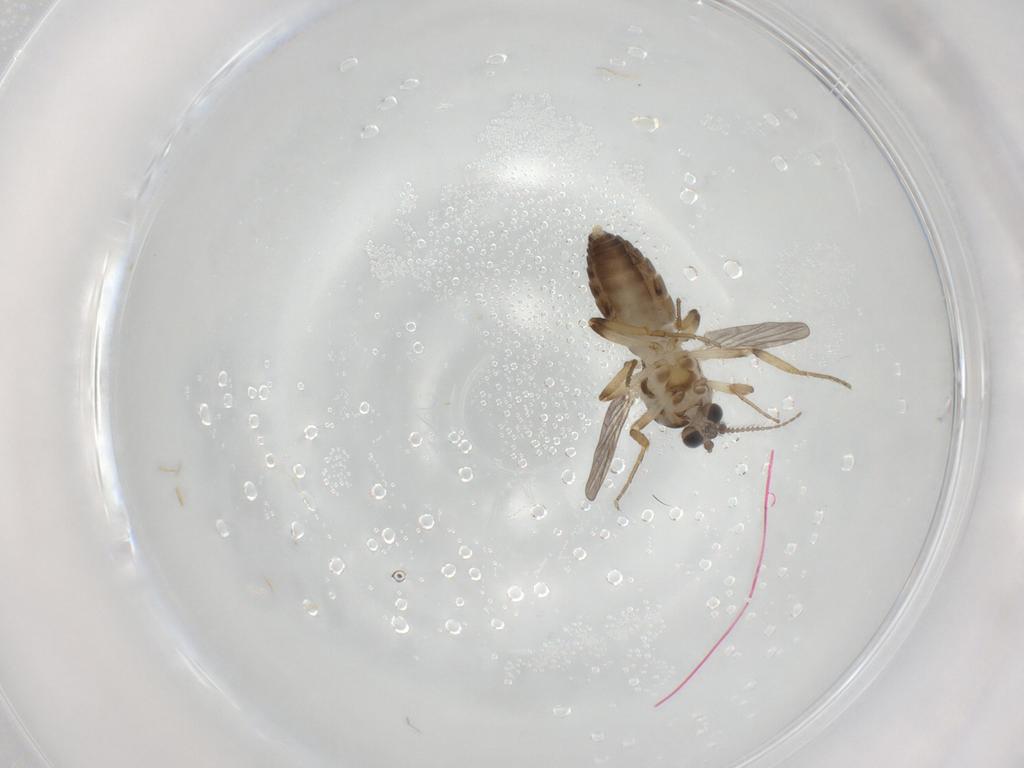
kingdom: Animalia
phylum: Arthropoda
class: Insecta
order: Diptera
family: Ceratopogonidae
